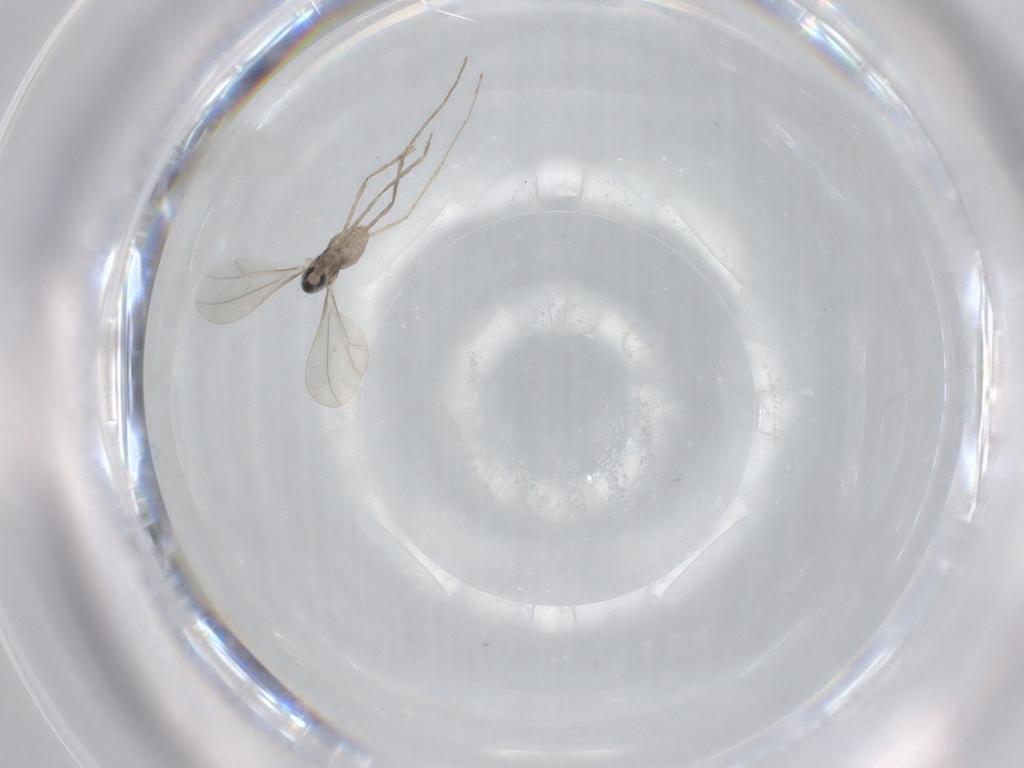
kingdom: Animalia
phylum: Arthropoda
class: Insecta
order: Diptera
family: Cecidomyiidae
